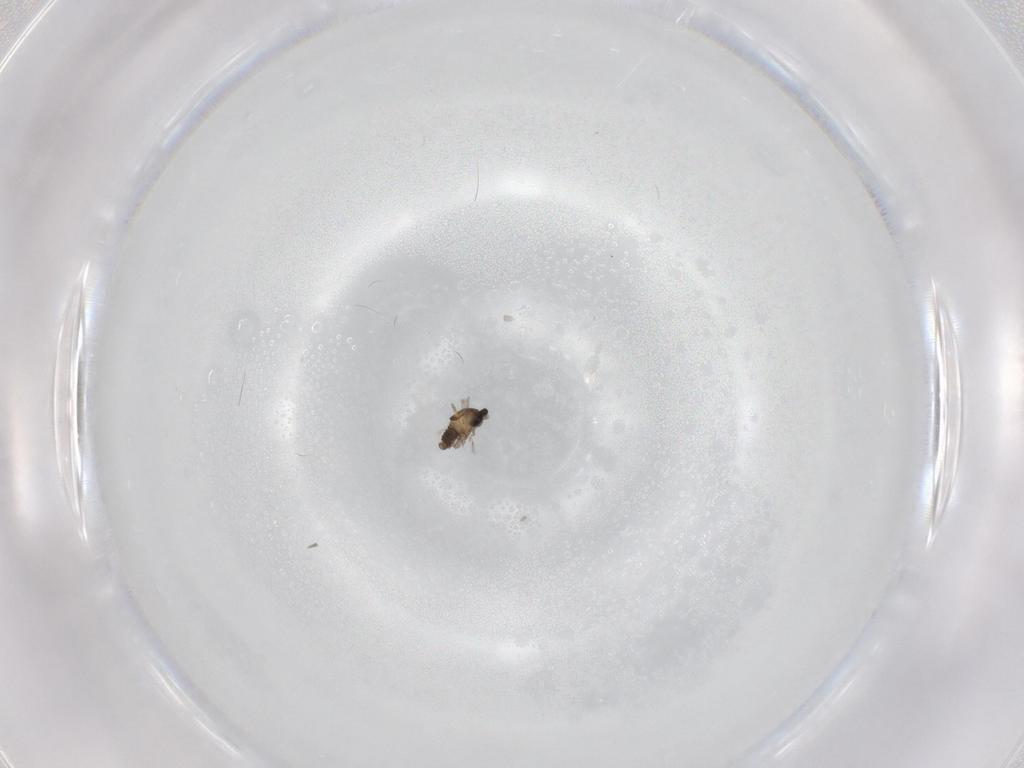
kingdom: Animalia
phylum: Arthropoda
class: Insecta
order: Diptera
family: Cecidomyiidae
